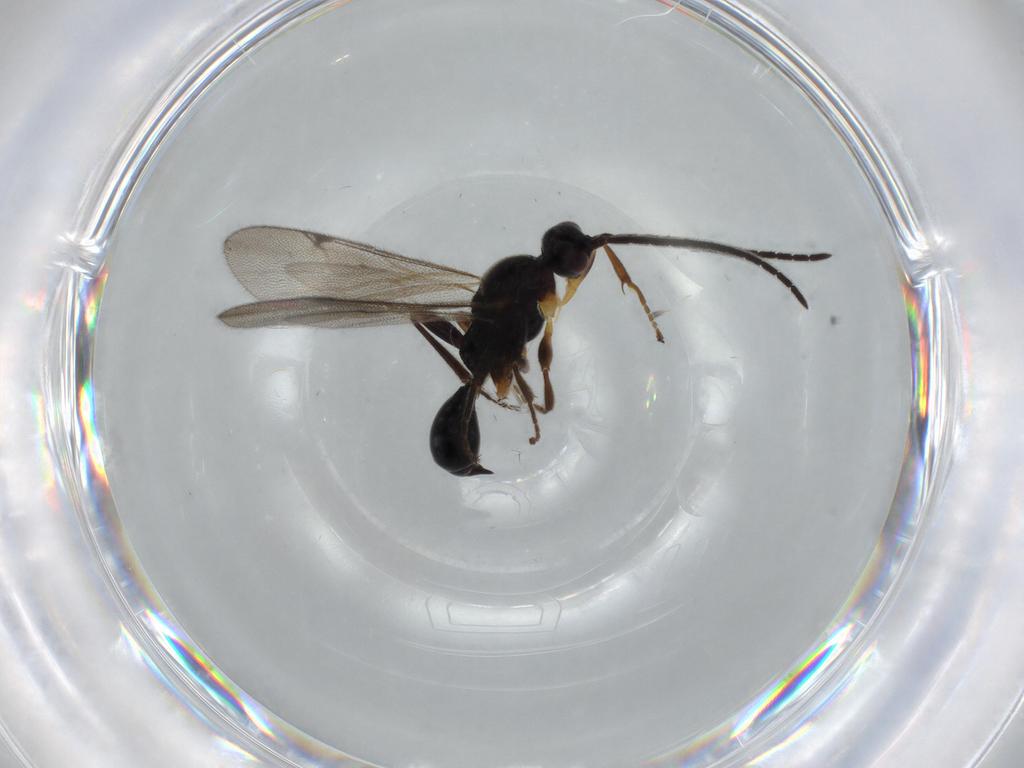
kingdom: Animalia
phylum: Arthropoda
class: Insecta
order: Hymenoptera
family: Proctotrupidae
